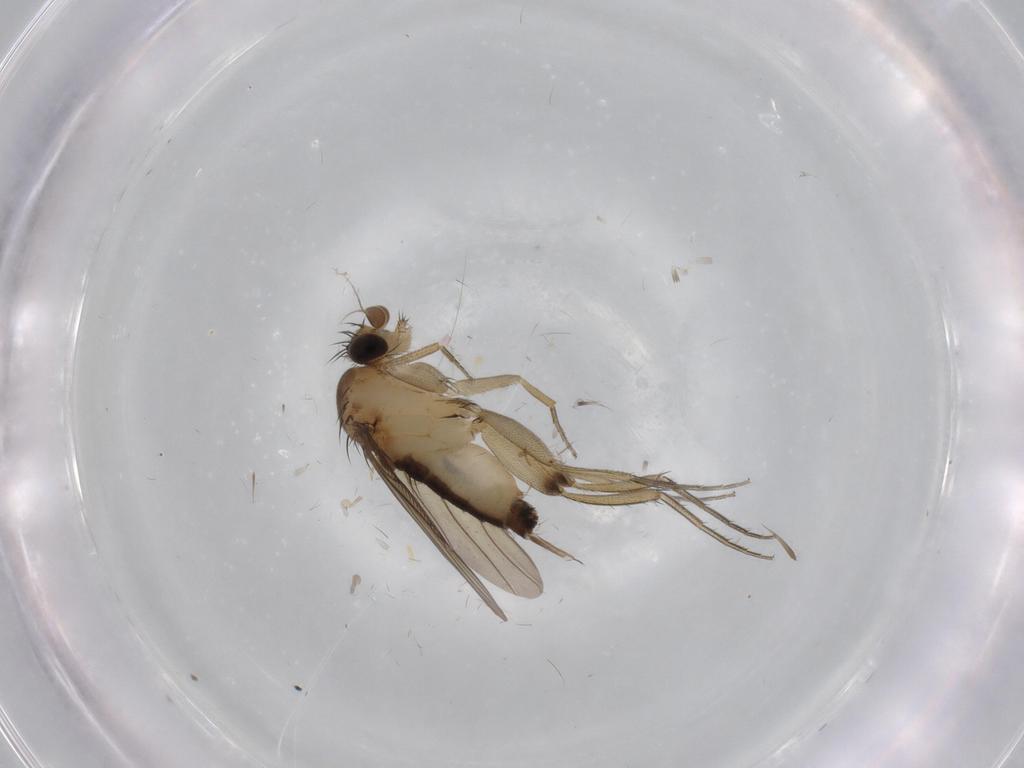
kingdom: Animalia
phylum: Arthropoda
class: Insecta
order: Diptera
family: Phoridae
